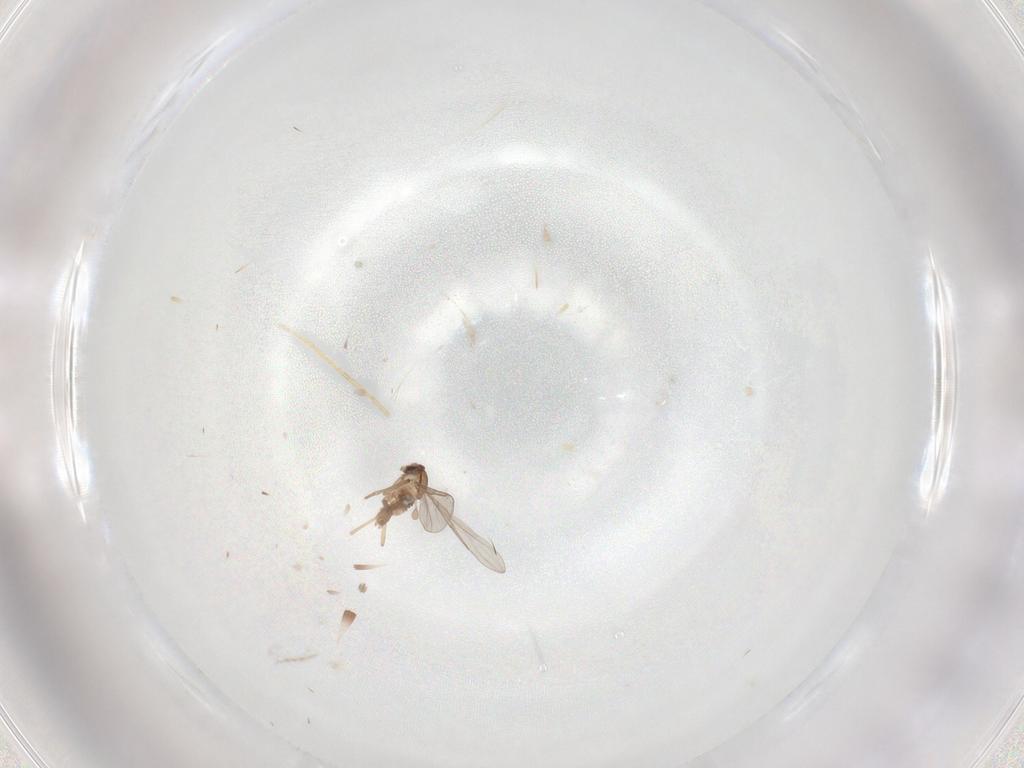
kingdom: Animalia
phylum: Arthropoda
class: Insecta
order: Diptera
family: Cecidomyiidae
